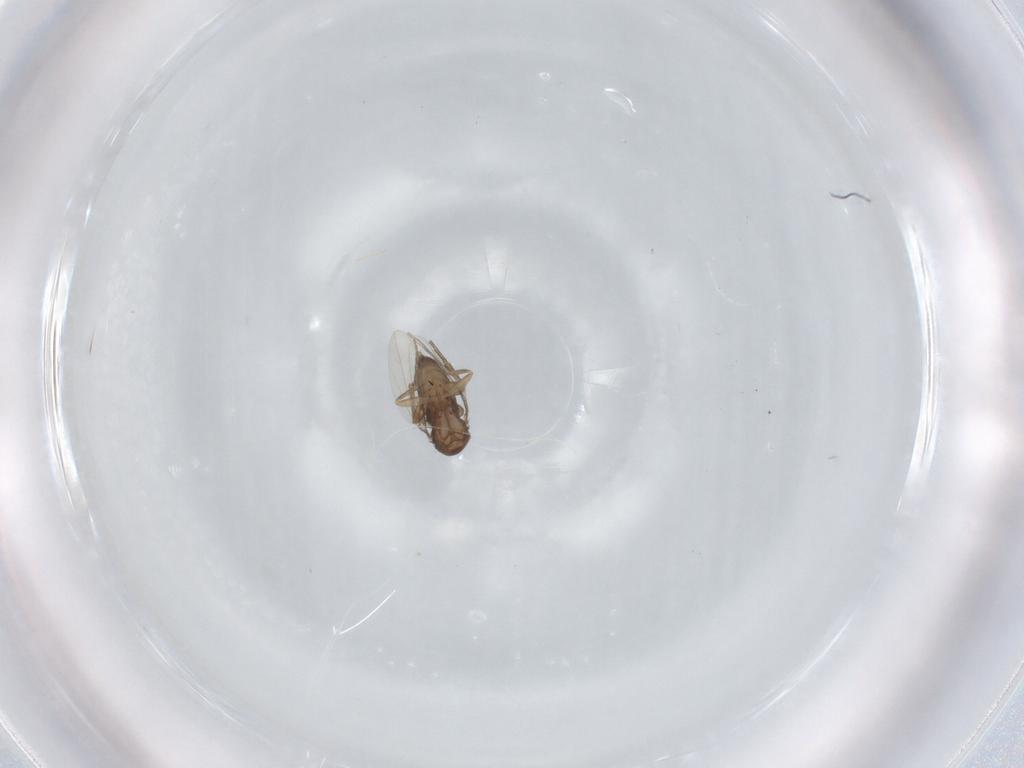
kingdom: Animalia
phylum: Arthropoda
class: Insecta
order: Diptera
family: Phoridae
